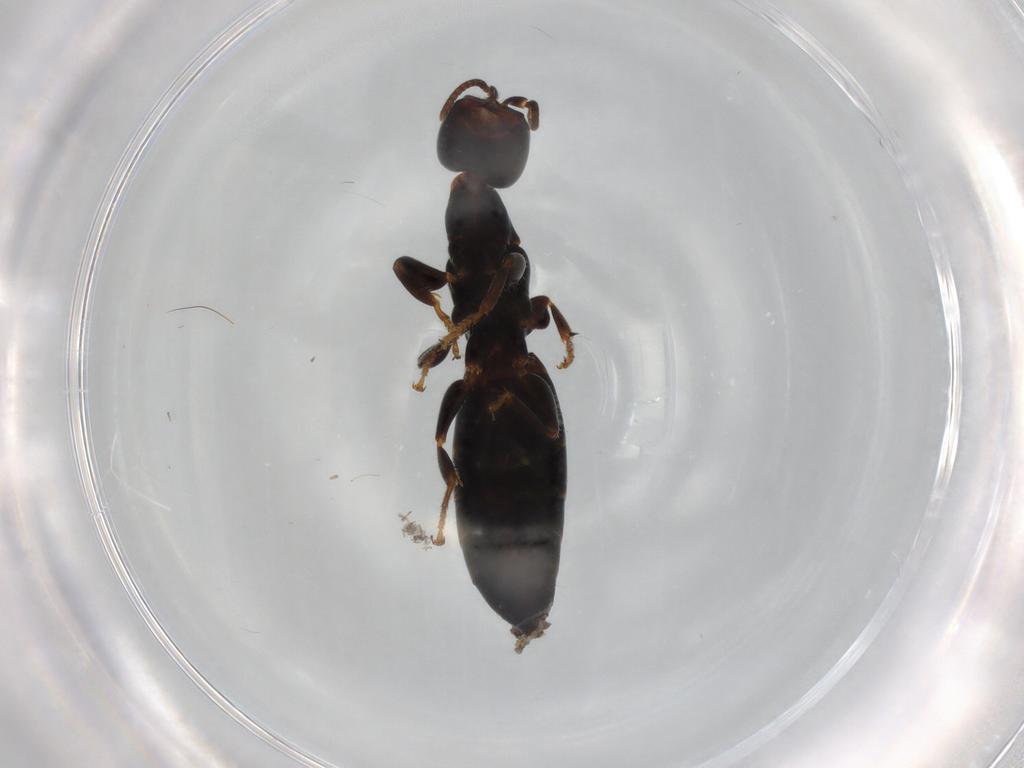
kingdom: Animalia
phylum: Arthropoda
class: Insecta
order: Hymenoptera
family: Bethylidae
